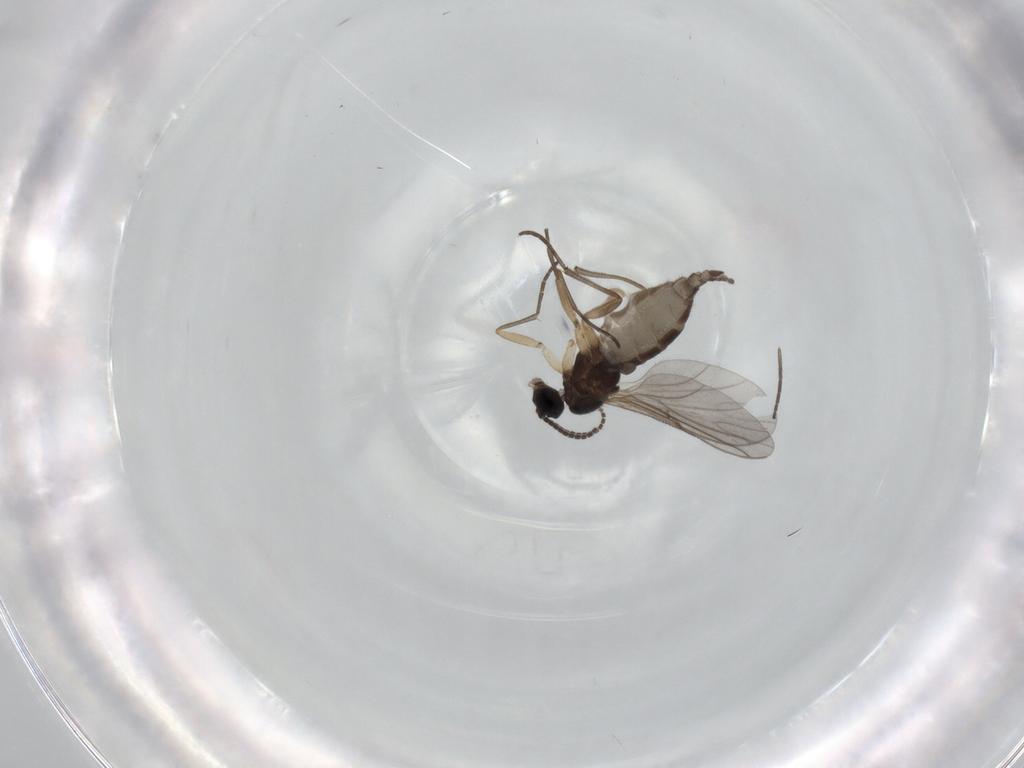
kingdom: Animalia
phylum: Arthropoda
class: Insecta
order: Diptera
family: Sciaridae
